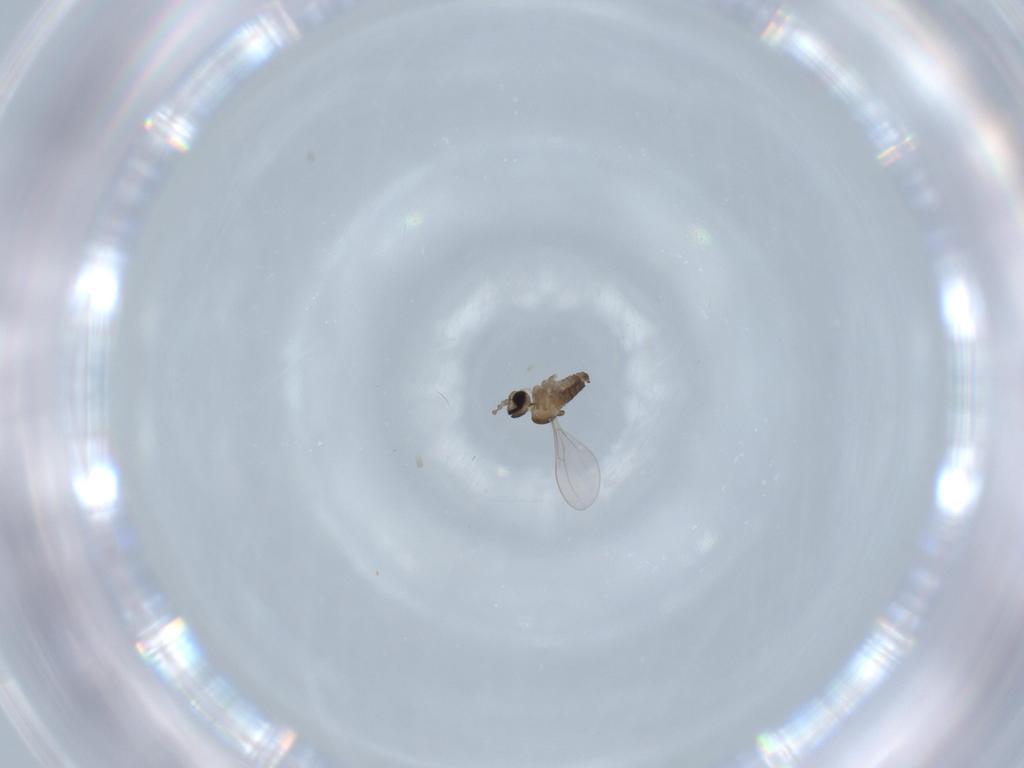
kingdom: Animalia
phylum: Arthropoda
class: Insecta
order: Diptera
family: Cecidomyiidae
